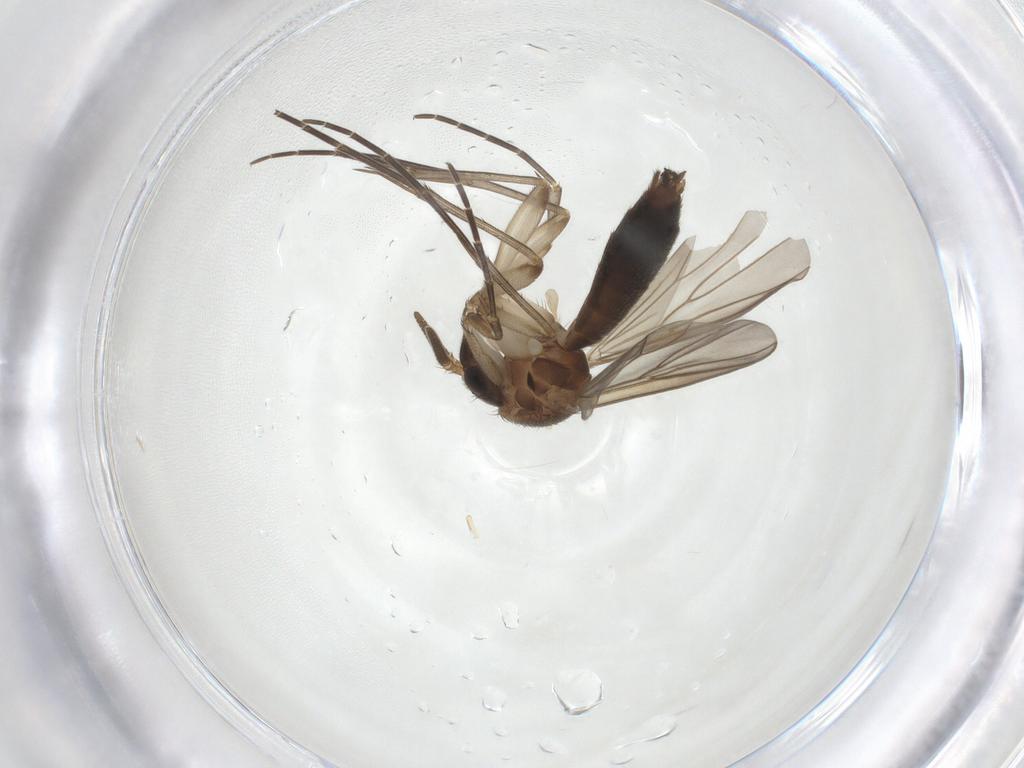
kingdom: Animalia
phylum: Arthropoda
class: Insecta
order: Diptera
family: Mycetophilidae
